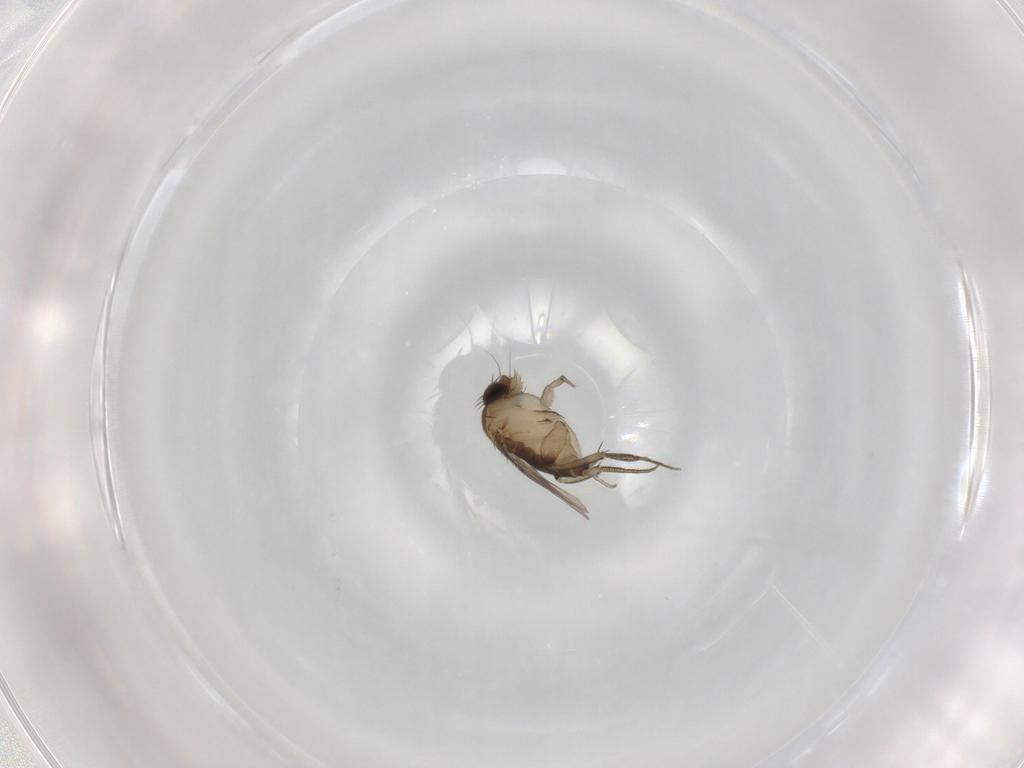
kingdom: Animalia
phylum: Arthropoda
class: Insecta
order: Diptera
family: Phoridae
